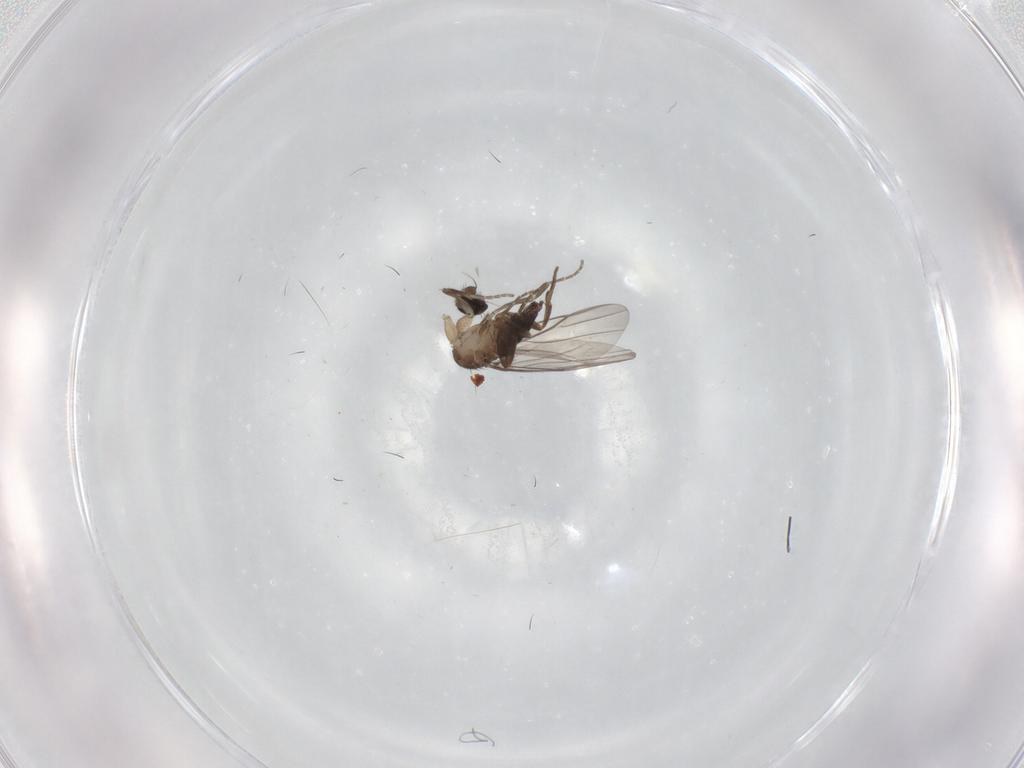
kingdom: Animalia
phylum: Arthropoda
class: Insecta
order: Diptera
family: Phoridae
